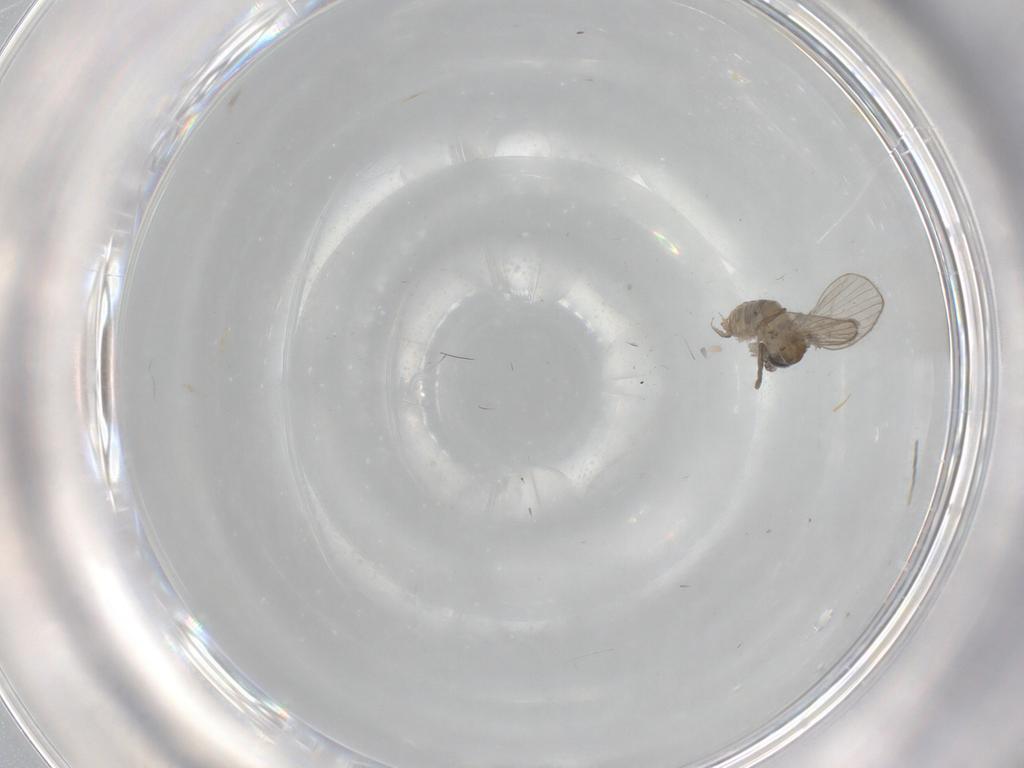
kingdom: Animalia
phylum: Arthropoda
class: Insecta
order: Diptera
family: Psychodidae
